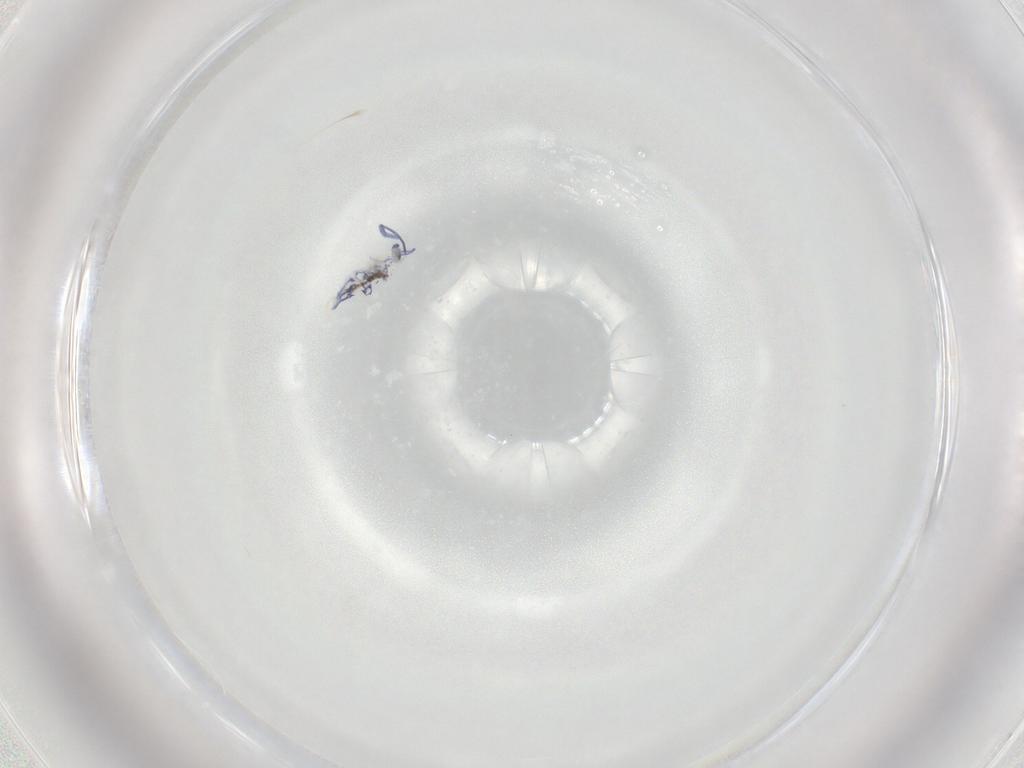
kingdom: Animalia
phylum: Arthropoda
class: Collembola
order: Entomobryomorpha
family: Entomobryidae
